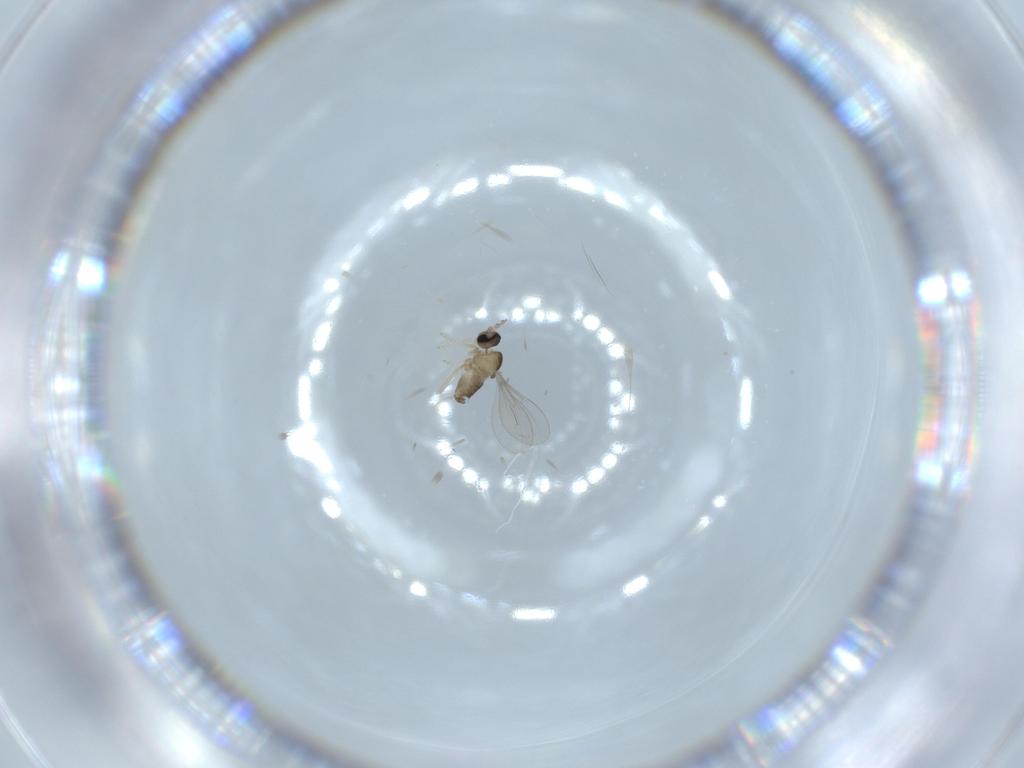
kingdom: Animalia
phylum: Arthropoda
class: Insecta
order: Diptera
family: Cecidomyiidae
